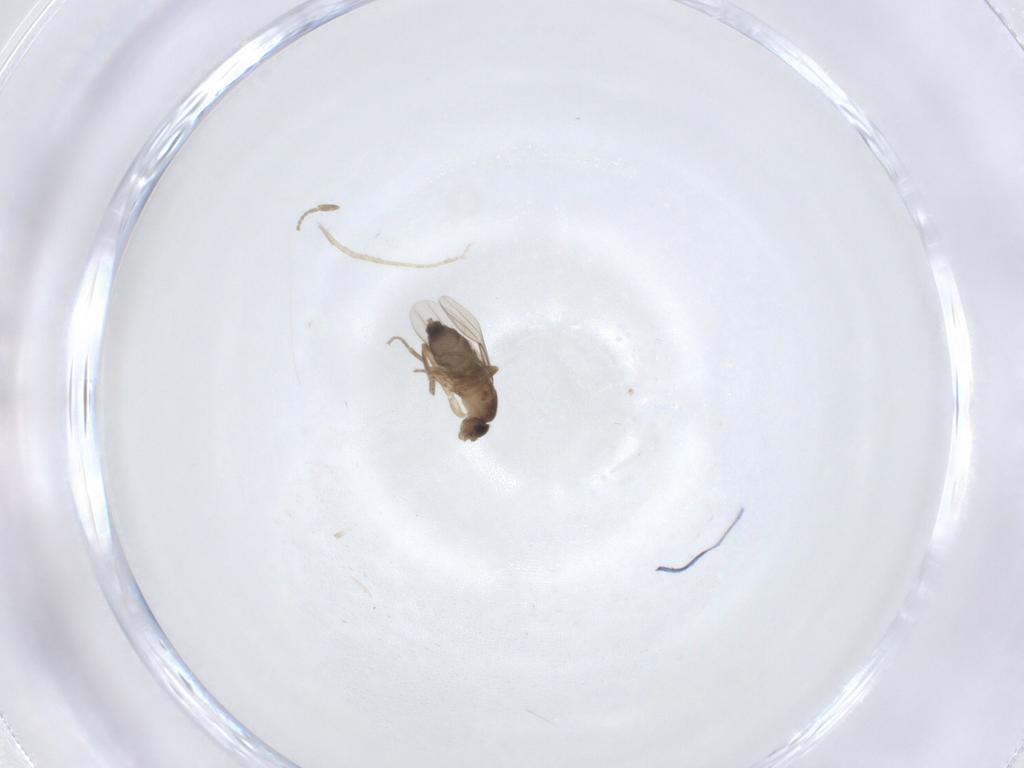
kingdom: Animalia
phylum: Arthropoda
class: Insecta
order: Diptera
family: Phoridae
